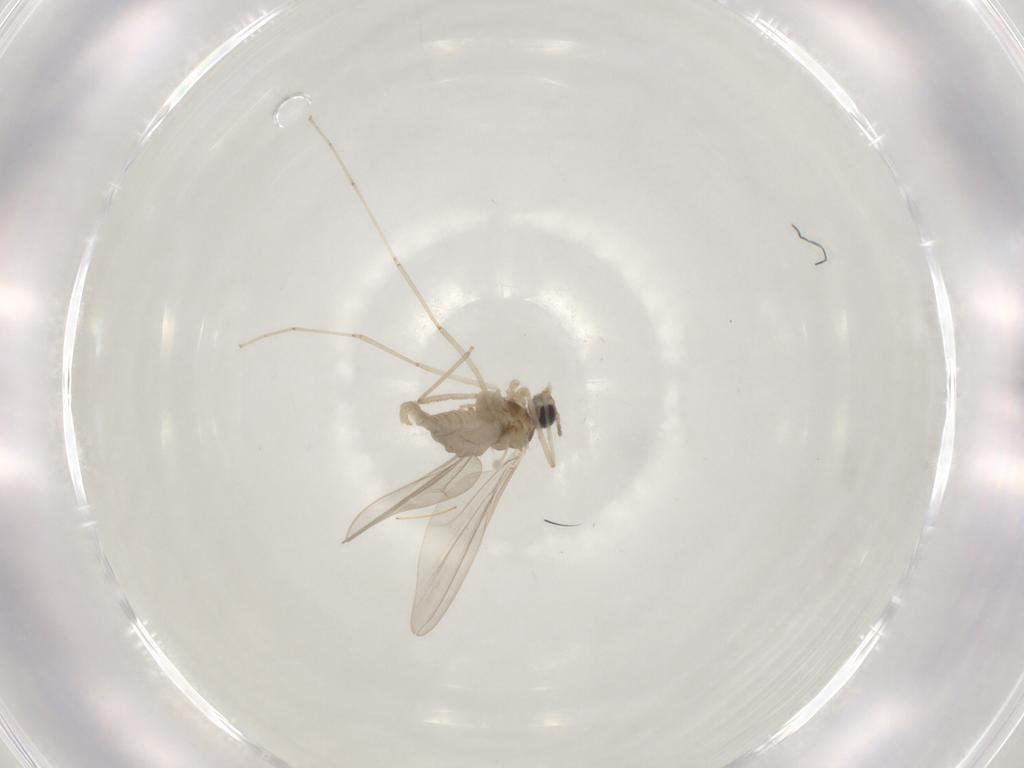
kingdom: Animalia
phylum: Arthropoda
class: Insecta
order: Diptera
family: Cecidomyiidae
